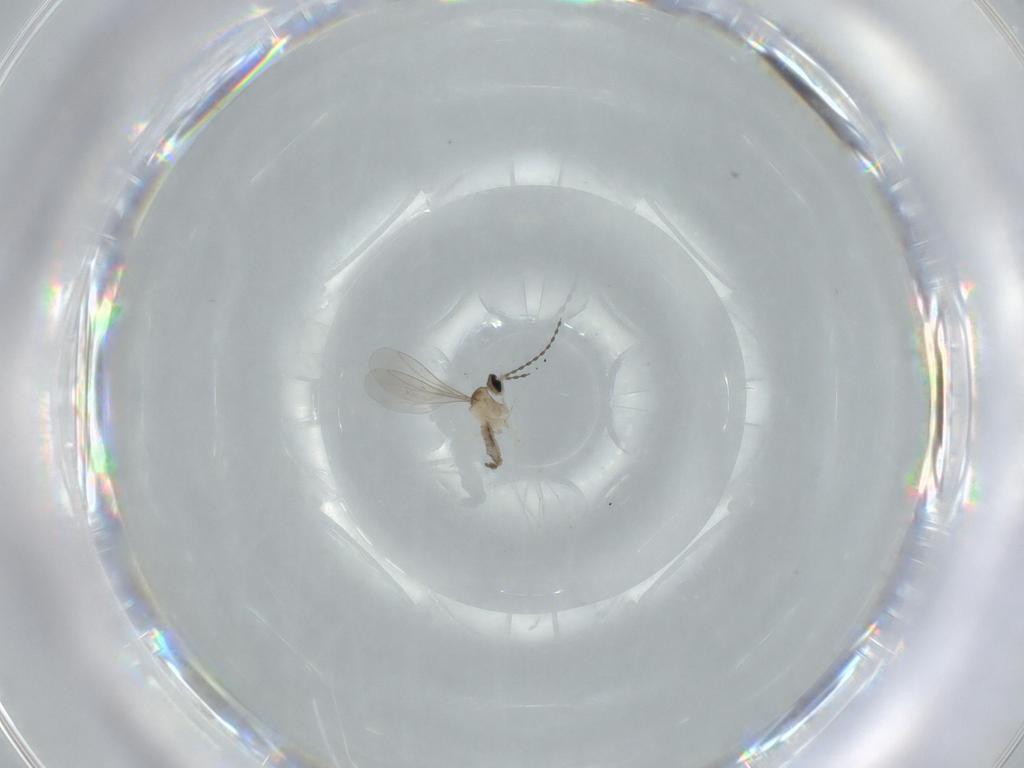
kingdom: Animalia
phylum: Arthropoda
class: Insecta
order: Diptera
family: Cecidomyiidae
